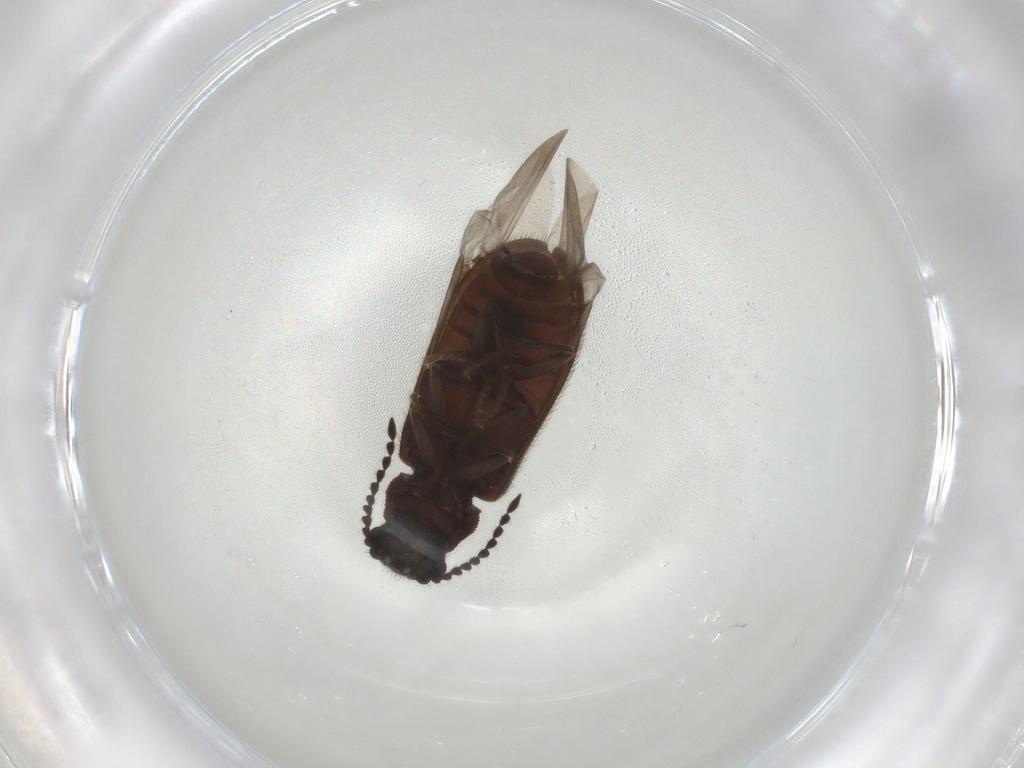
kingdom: Animalia
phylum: Arthropoda
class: Insecta
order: Coleoptera
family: Melyridae
